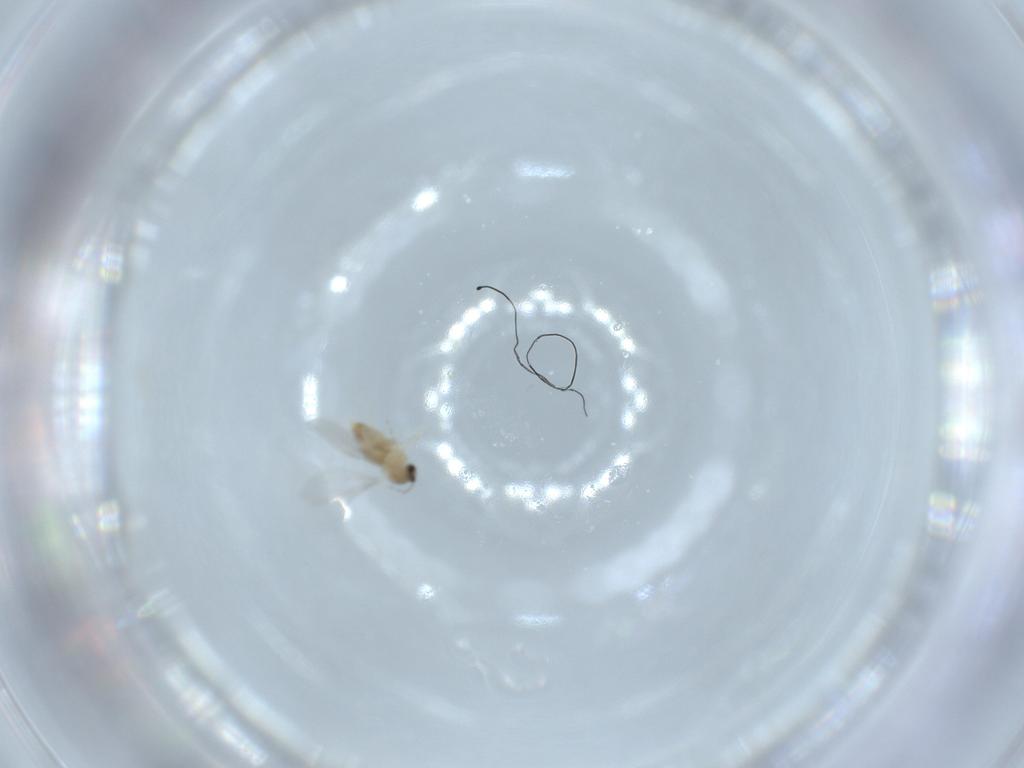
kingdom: Animalia
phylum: Arthropoda
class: Insecta
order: Diptera
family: Cecidomyiidae
